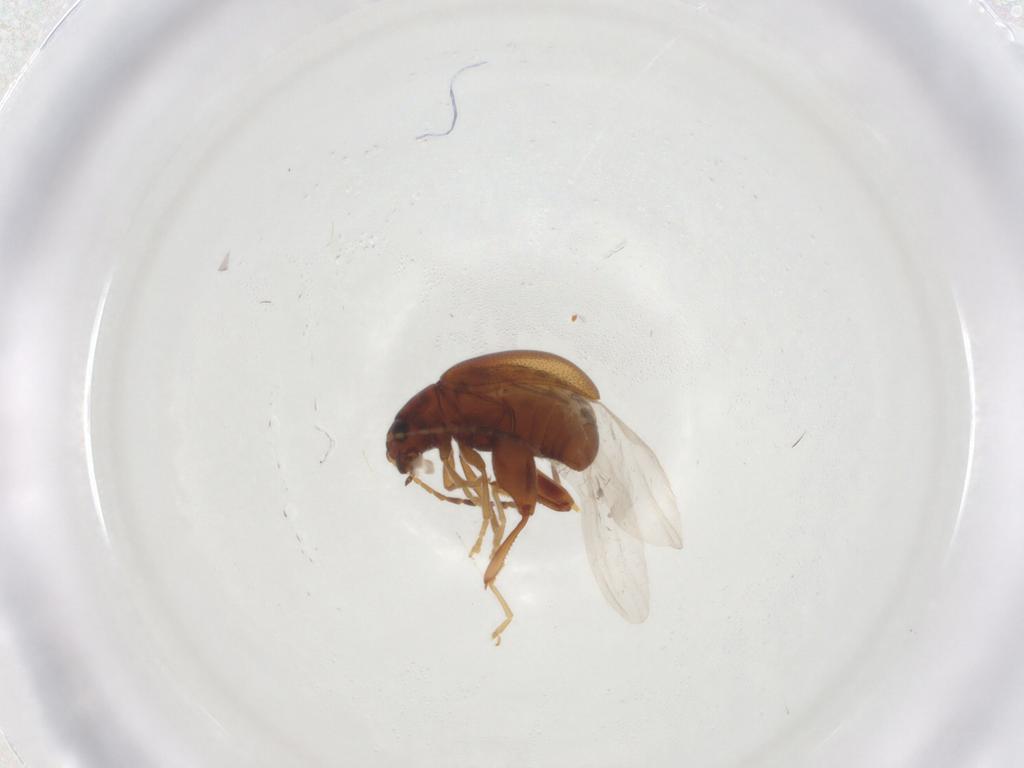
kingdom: Animalia
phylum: Arthropoda
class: Insecta
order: Coleoptera
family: Chrysomelidae
